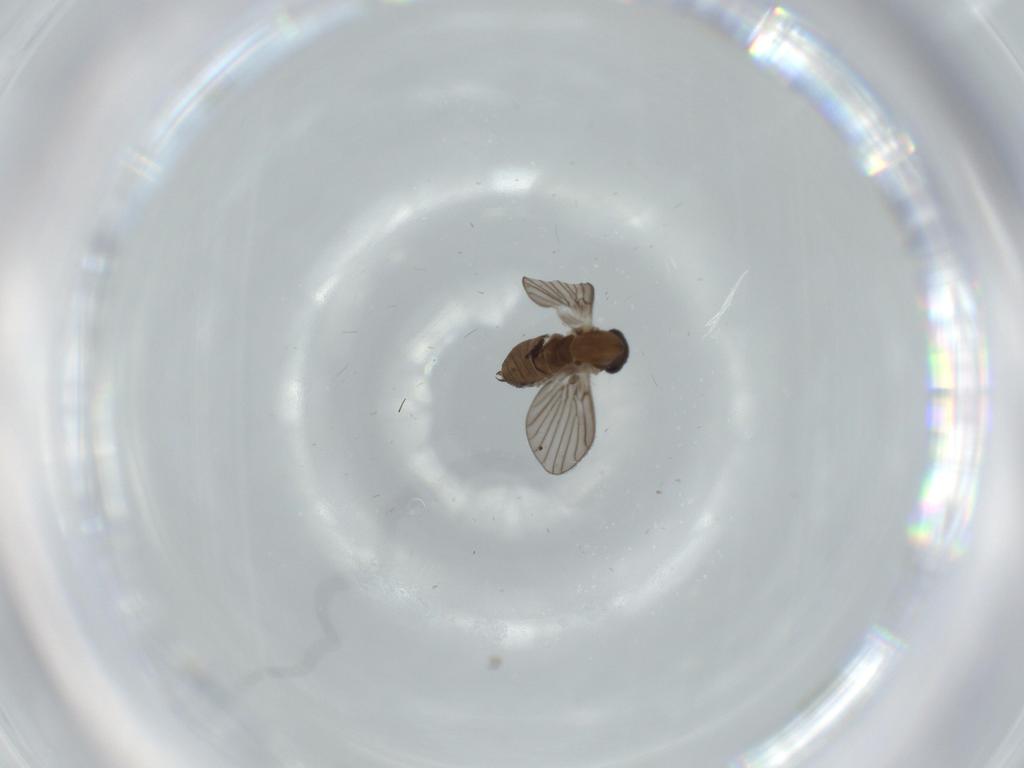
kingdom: Animalia
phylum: Arthropoda
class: Insecta
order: Diptera
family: Psychodidae
